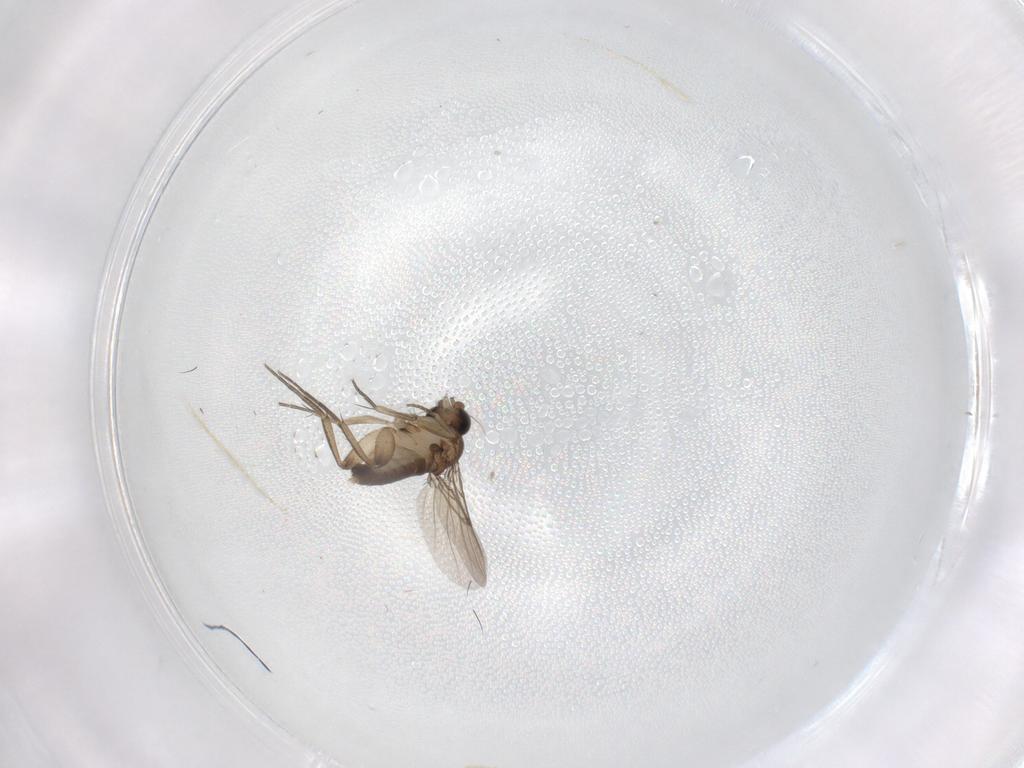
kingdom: Animalia
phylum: Arthropoda
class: Insecta
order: Diptera
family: Phoridae
